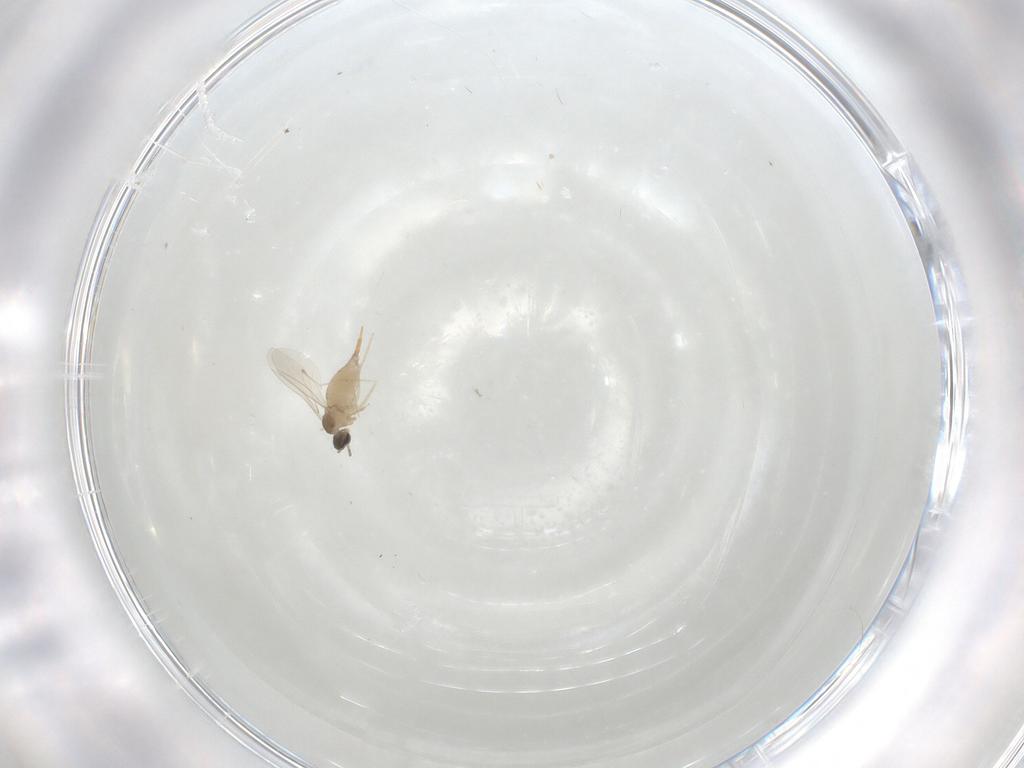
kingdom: Animalia
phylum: Arthropoda
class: Insecta
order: Diptera
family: Cecidomyiidae
